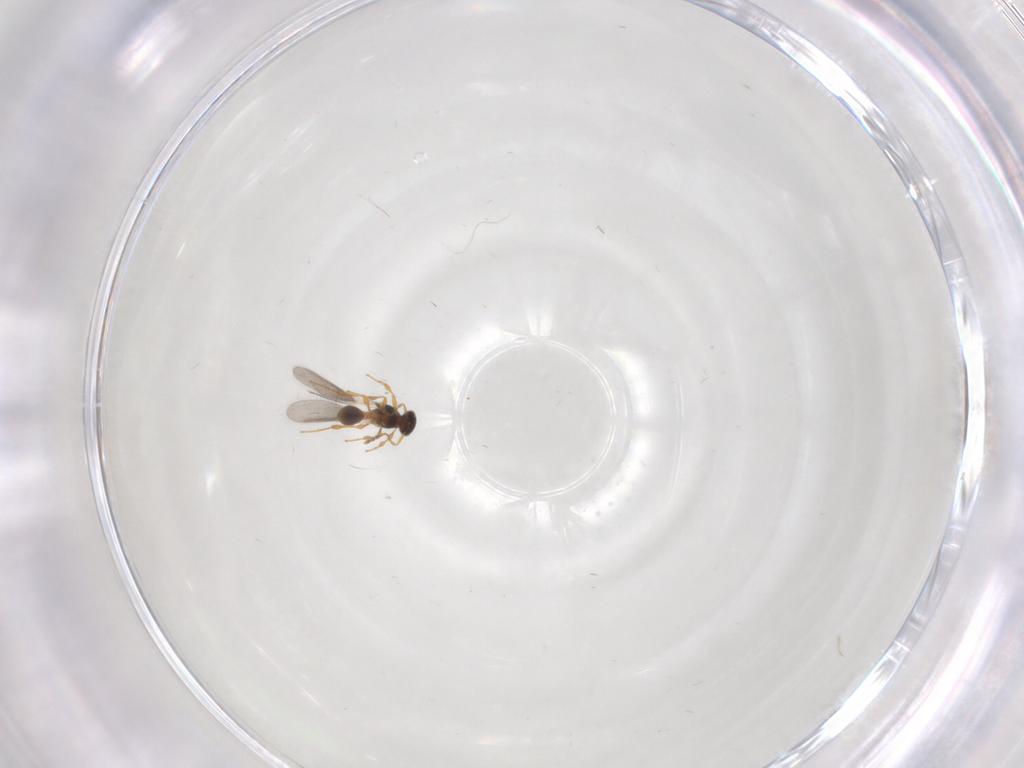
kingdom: Animalia
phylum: Arthropoda
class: Insecta
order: Hymenoptera
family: Platygastridae
